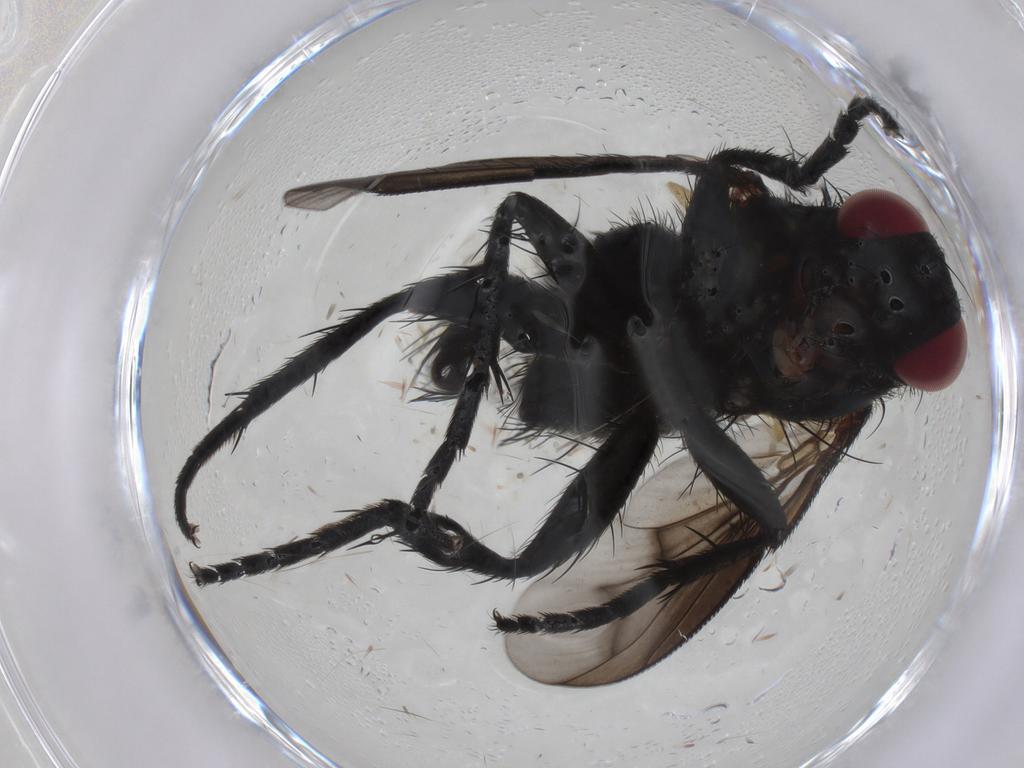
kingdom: Animalia
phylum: Arthropoda
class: Insecta
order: Diptera
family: Tachinidae
